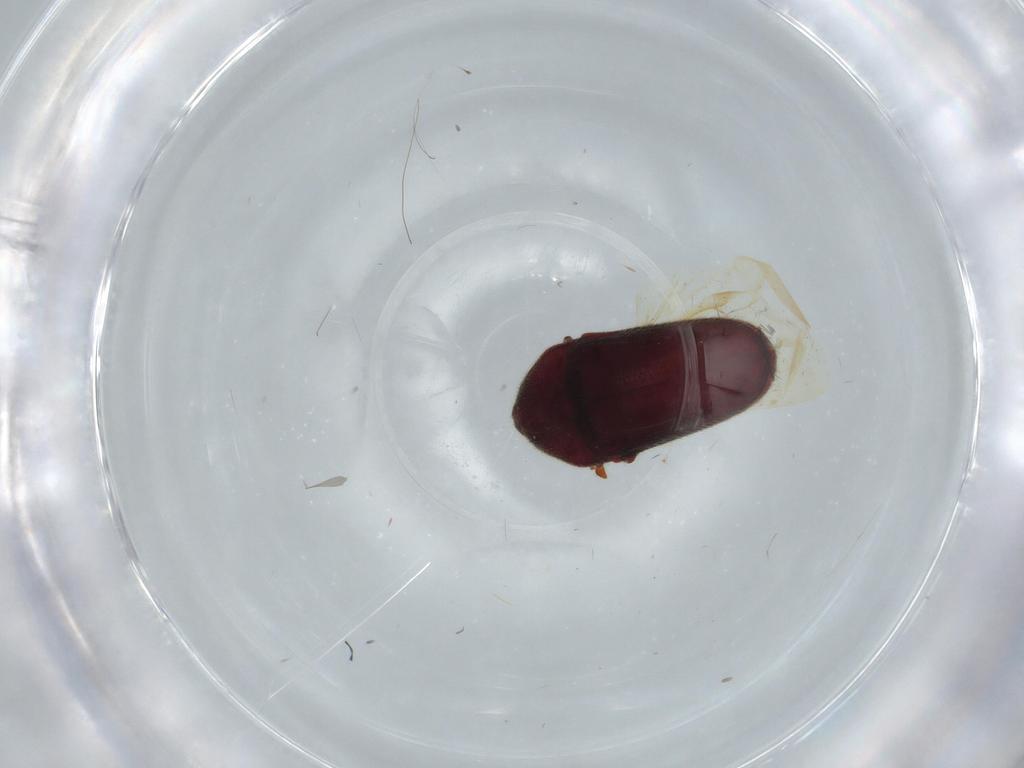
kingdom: Animalia
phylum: Arthropoda
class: Insecta
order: Coleoptera
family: Throscidae
